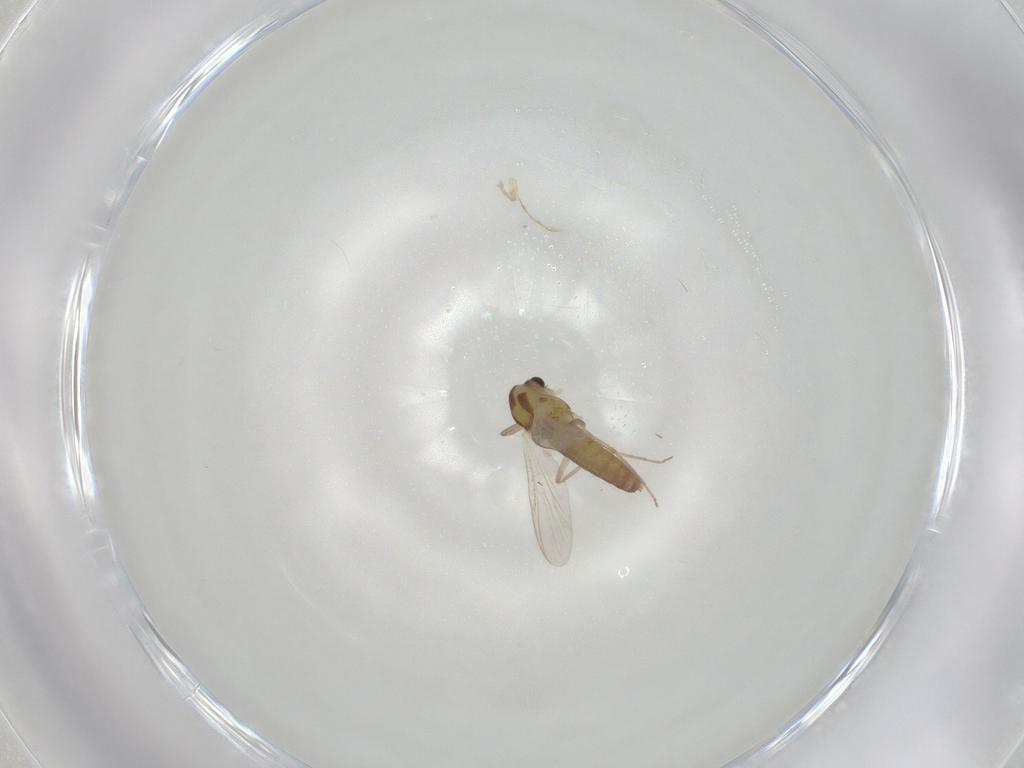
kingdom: Animalia
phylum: Arthropoda
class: Insecta
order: Diptera
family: Chironomidae
